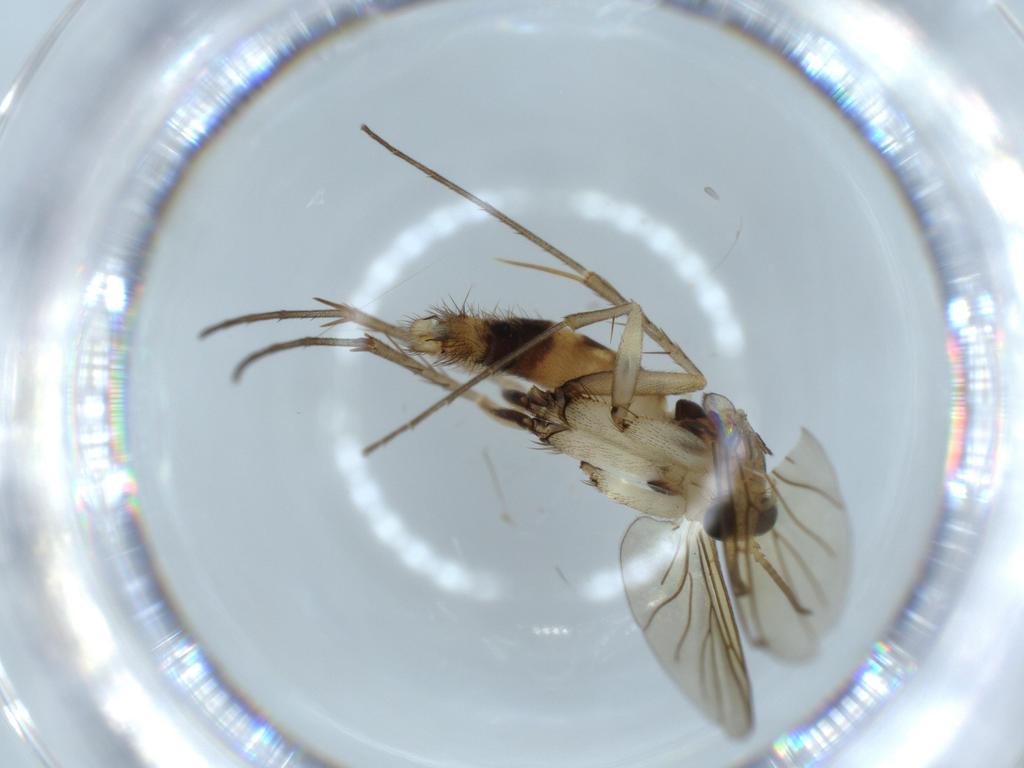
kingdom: Animalia
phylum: Arthropoda
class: Insecta
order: Diptera
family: Mycetophilidae
